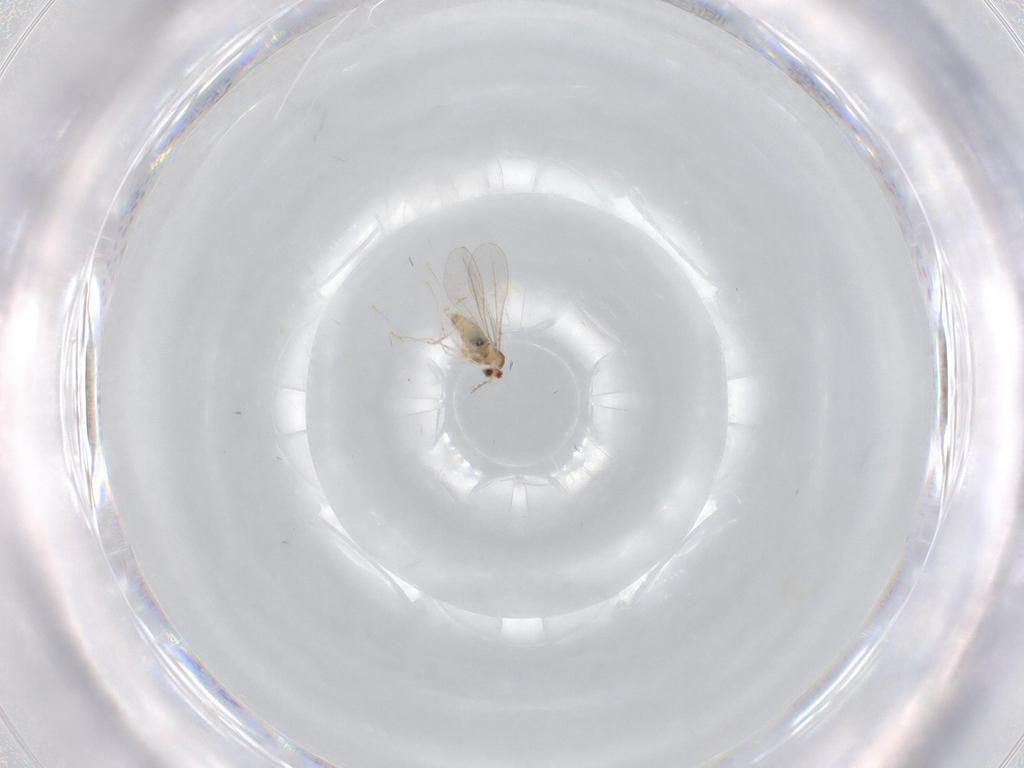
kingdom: Animalia
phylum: Arthropoda
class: Insecta
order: Diptera
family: Cecidomyiidae
